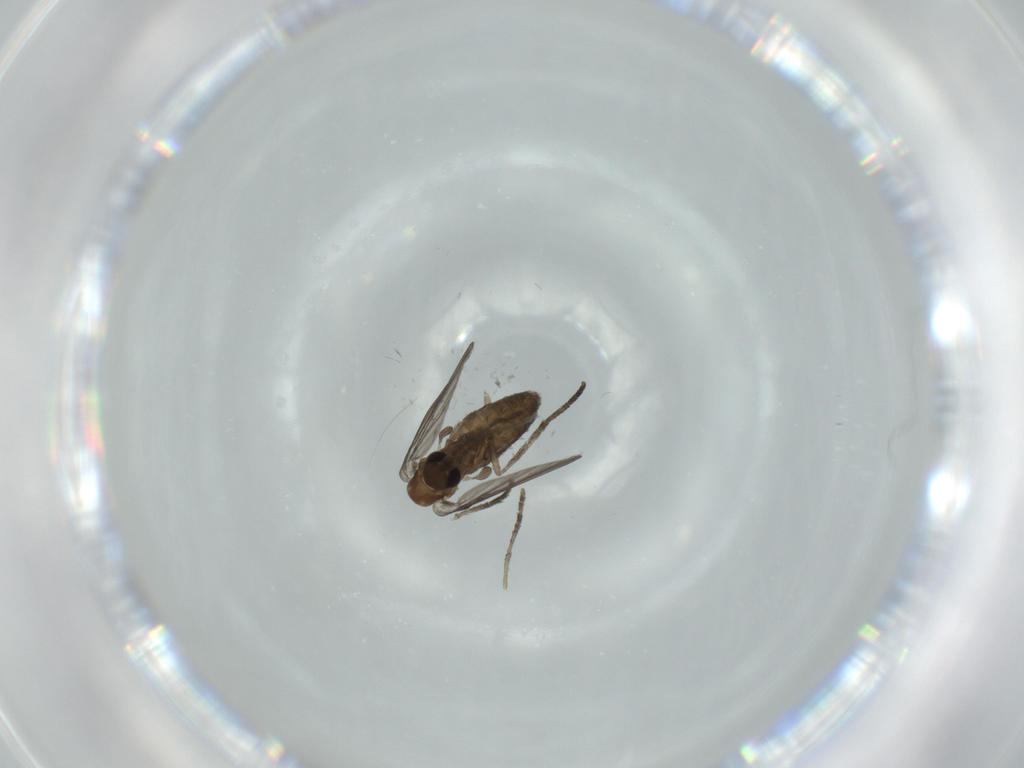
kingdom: Animalia
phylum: Arthropoda
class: Insecta
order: Diptera
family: Psychodidae
